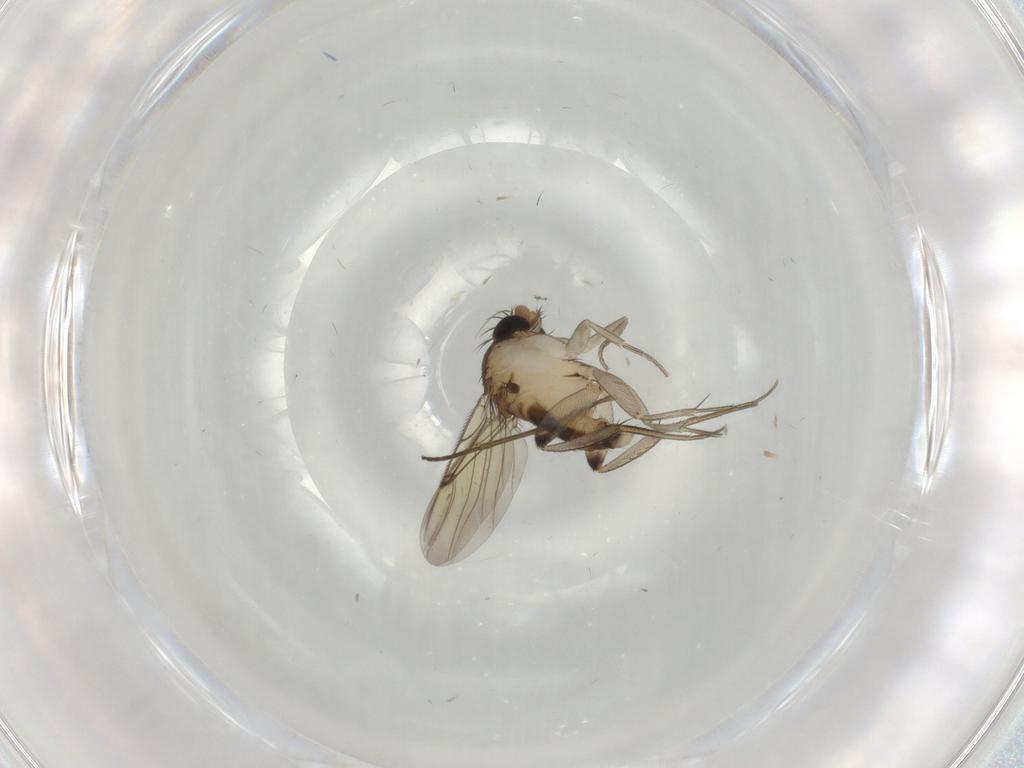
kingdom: Animalia
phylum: Arthropoda
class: Insecta
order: Diptera
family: Phoridae
